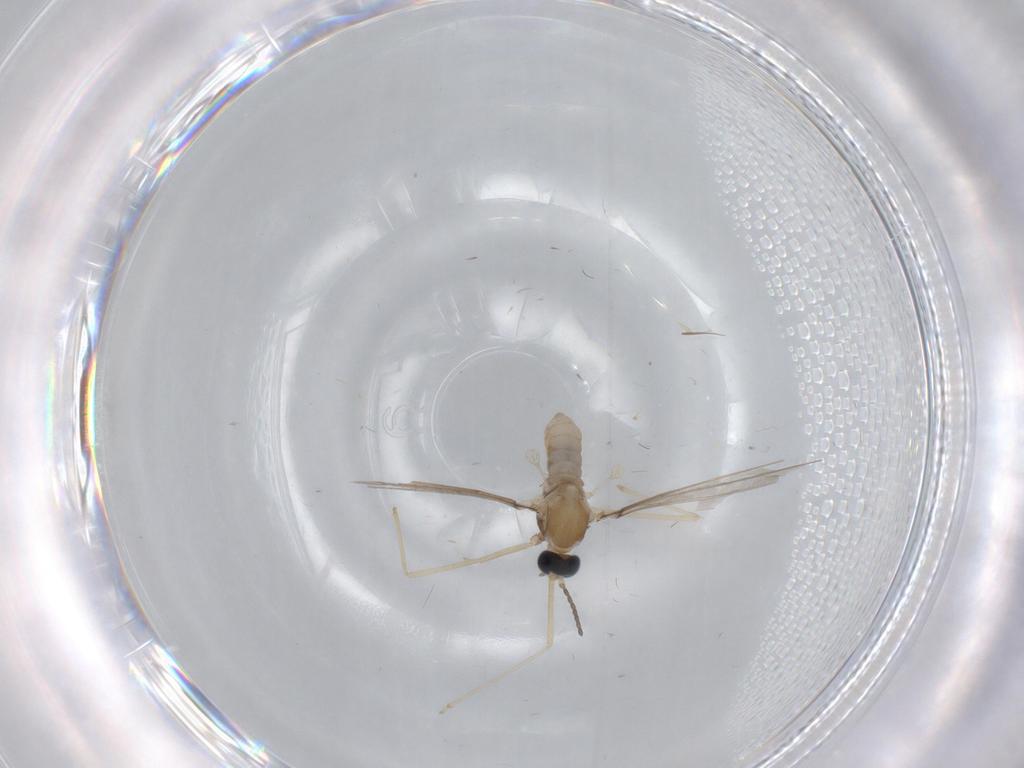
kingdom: Animalia
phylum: Arthropoda
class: Insecta
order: Diptera
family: Cecidomyiidae
